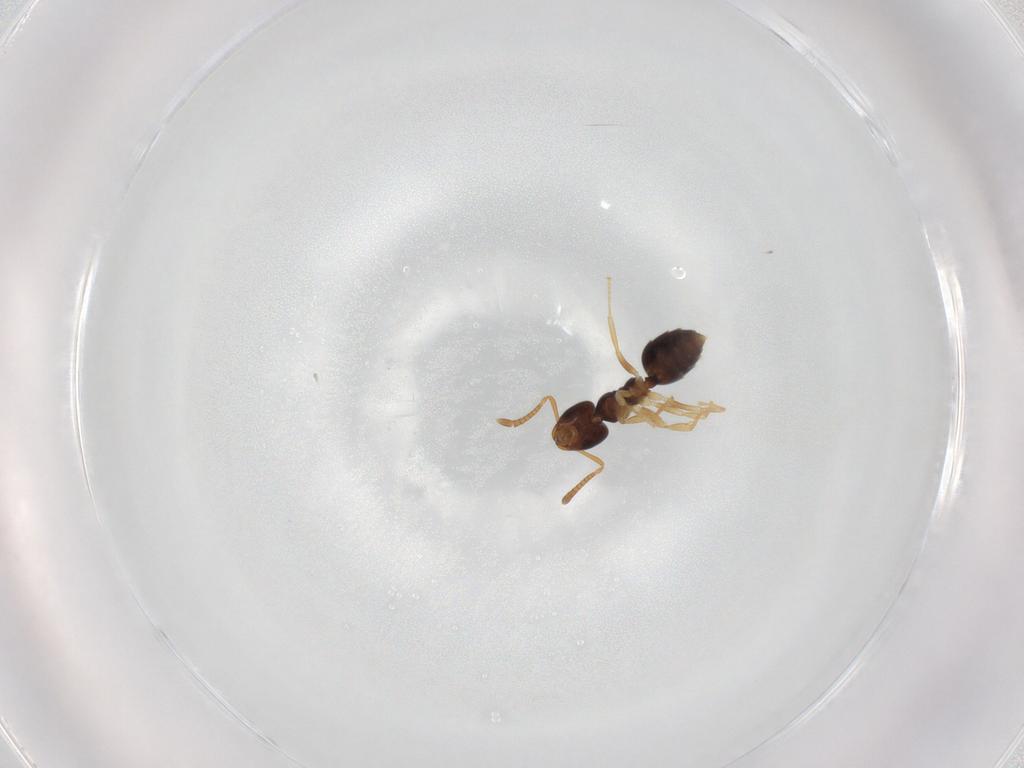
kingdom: Animalia
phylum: Arthropoda
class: Insecta
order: Hymenoptera
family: Formicidae
